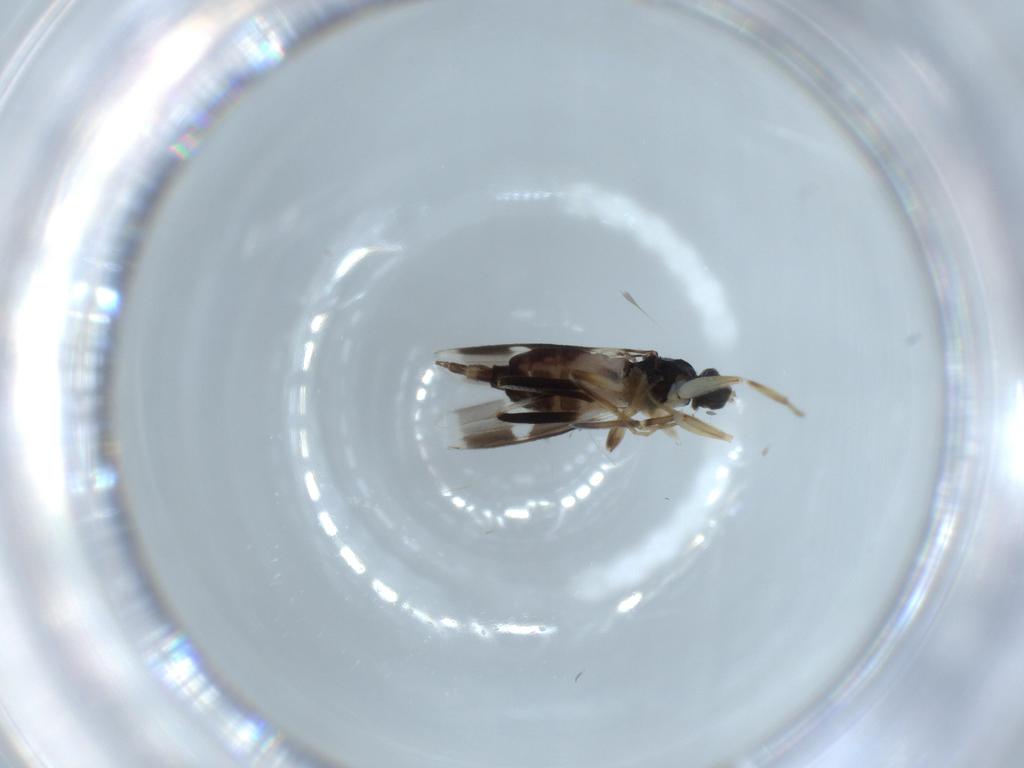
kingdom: Animalia
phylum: Arthropoda
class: Insecta
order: Diptera
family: Hybotidae
